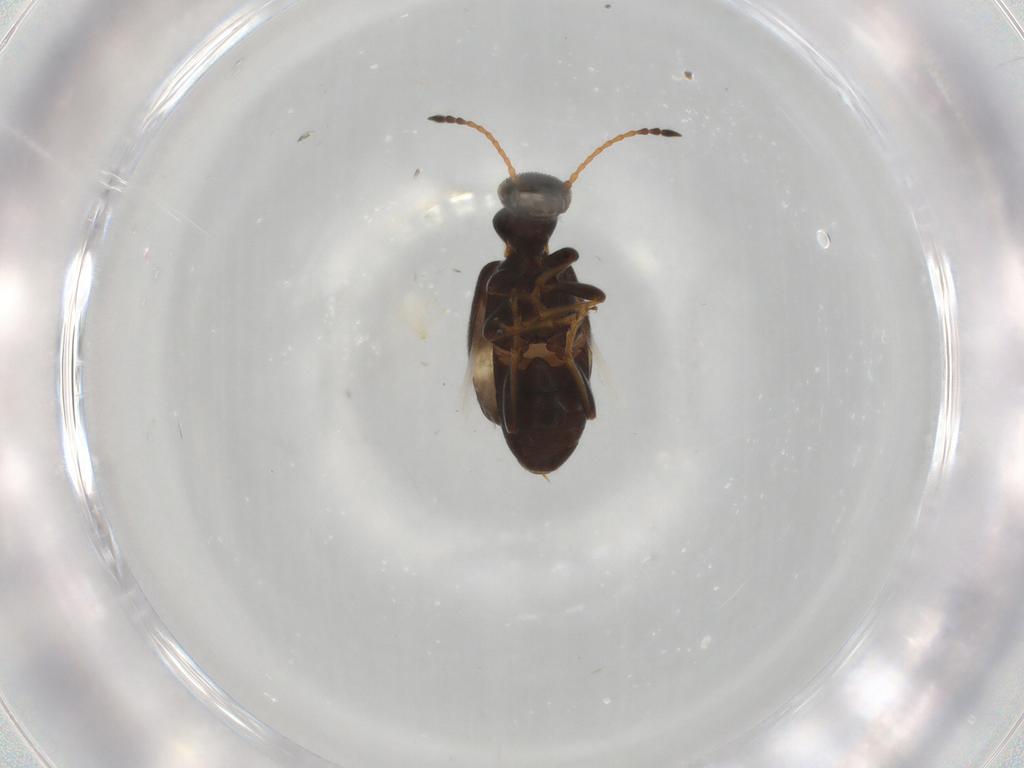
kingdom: Animalia
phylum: Arthropoda
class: Insecta
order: Coleoptera
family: Anthicidae
